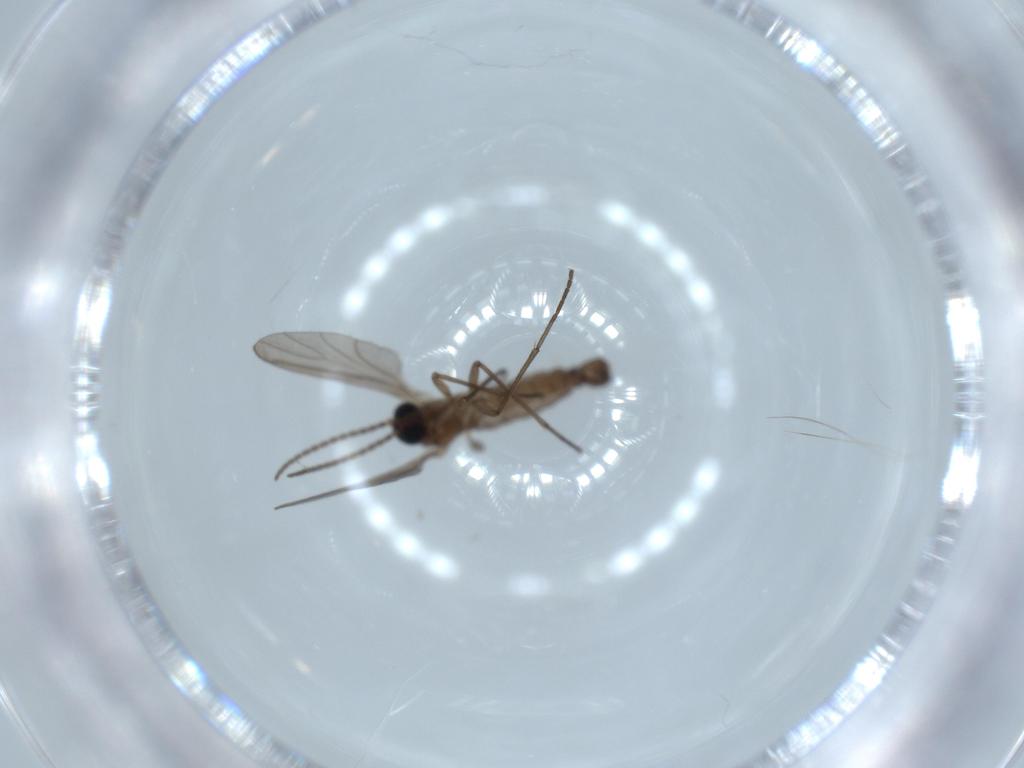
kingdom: Animalia
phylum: Arthropoda
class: Insecta
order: Diptera
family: Sciaridae
